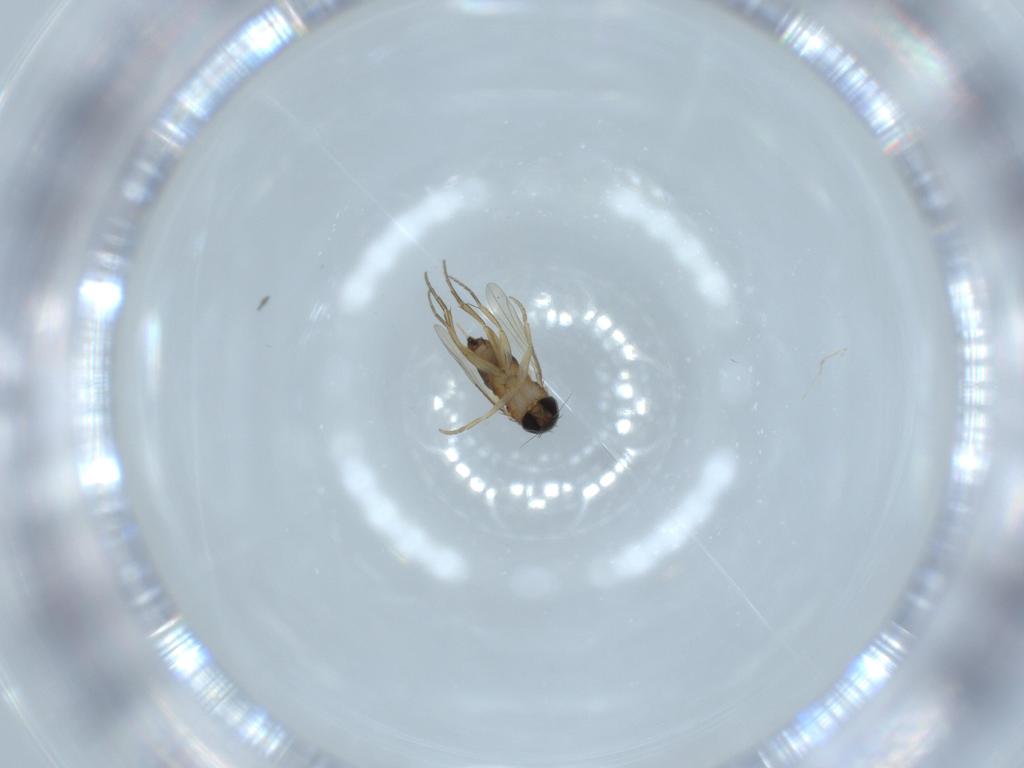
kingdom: Animalia
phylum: Arthropoda
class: Insecta
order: Diptera
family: Phoridae
